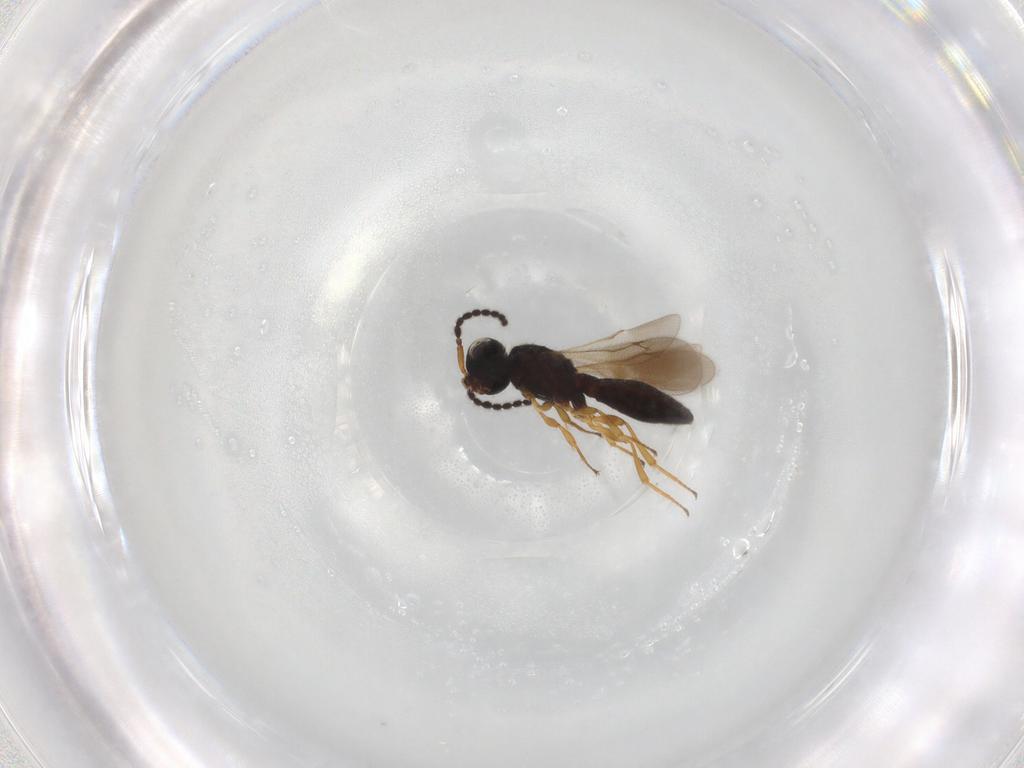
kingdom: Animalia
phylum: Arthropoda
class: Insecta
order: Hymenoptera
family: Scelionidae
